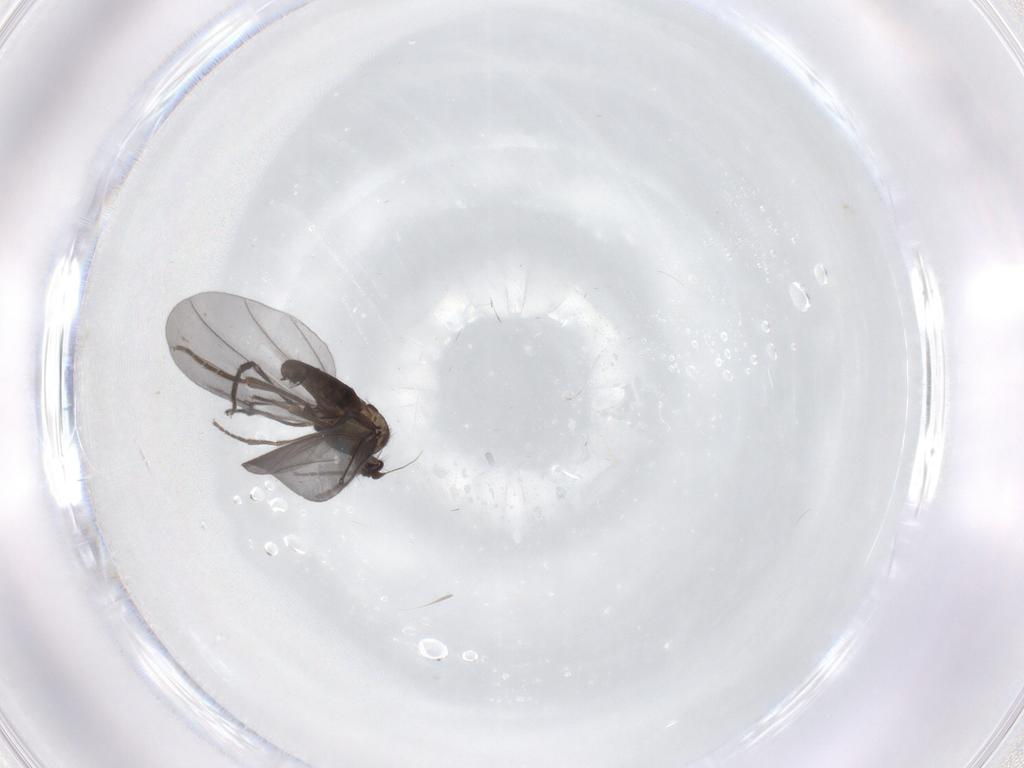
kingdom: Animalia
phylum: Arthropoda
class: Insecta
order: Diptera
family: Phoridae
